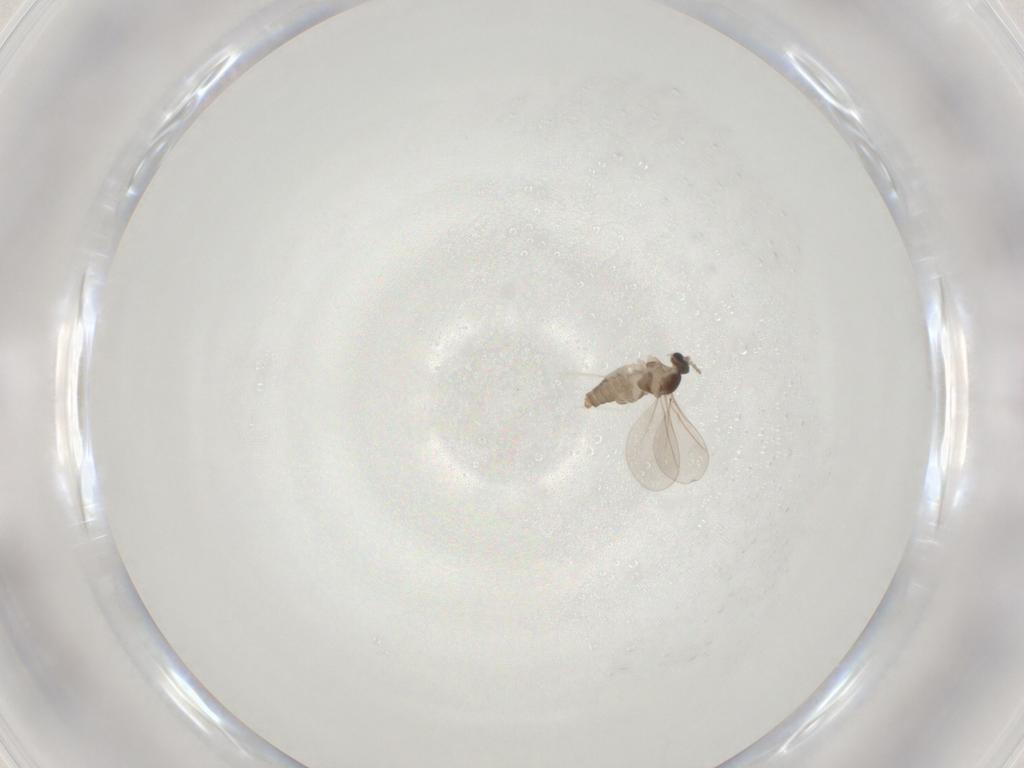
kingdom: Animalia
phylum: Arthropoda
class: Insecta
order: Diptera
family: Cecidomyiidae
